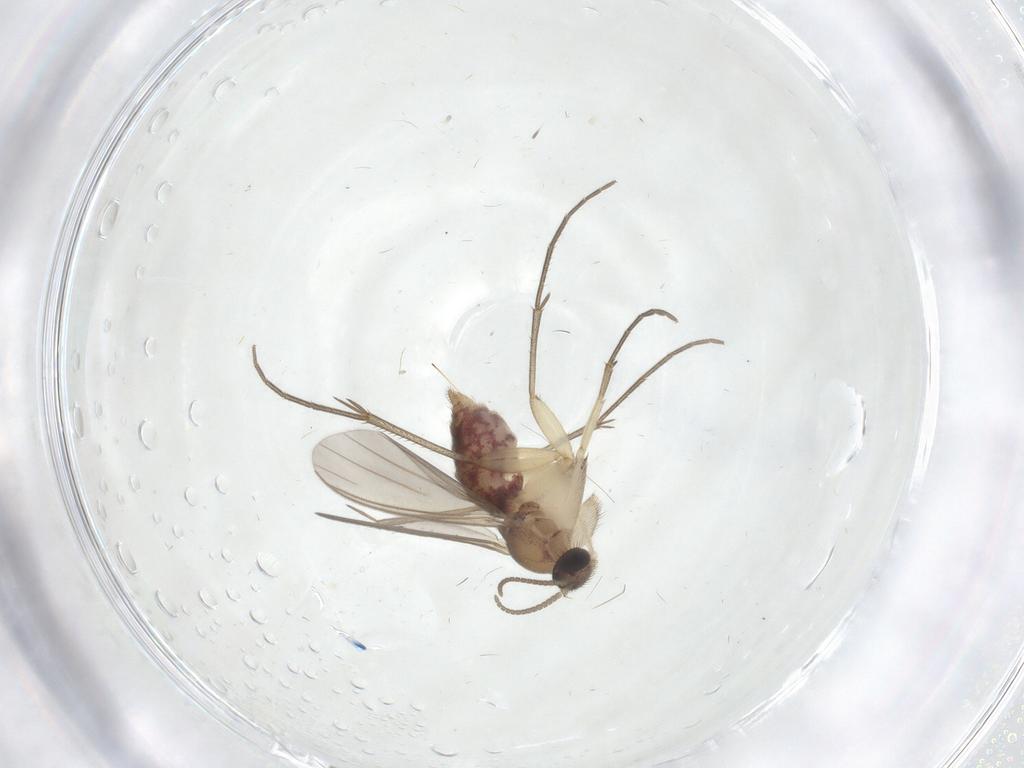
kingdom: Animalia
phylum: Arthropoda
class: Insecta
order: Diptera
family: Mycetophilidae
